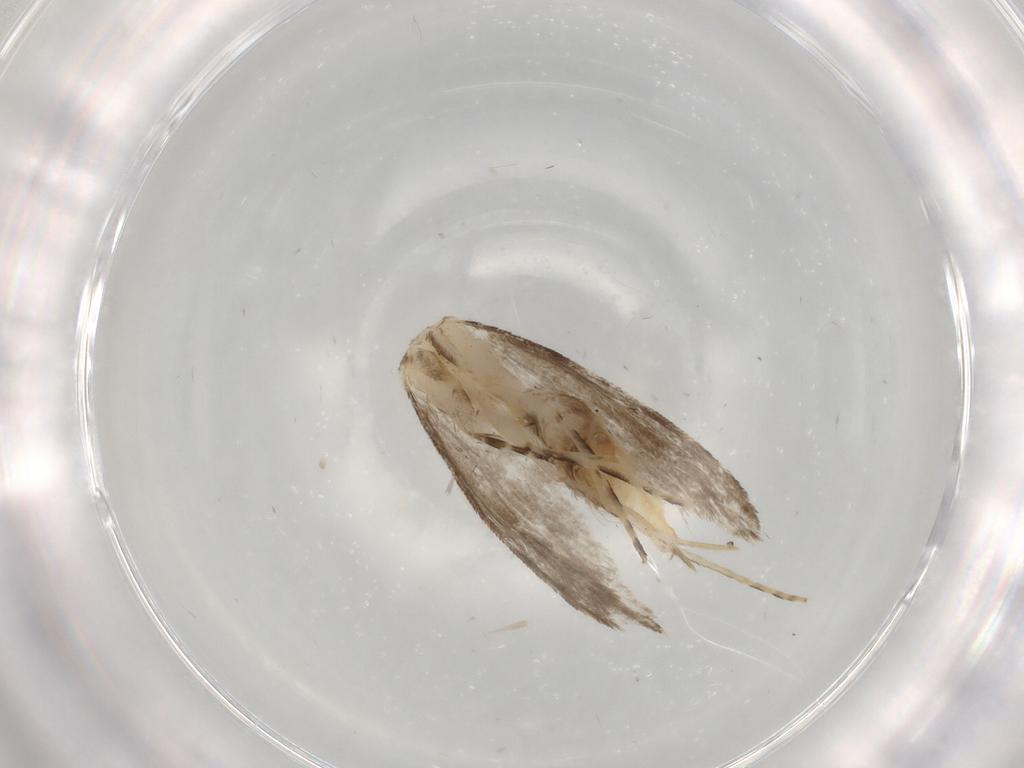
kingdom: Animalia
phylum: Arthropoda
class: Insecta
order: Lepidoptera
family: Tineidae
